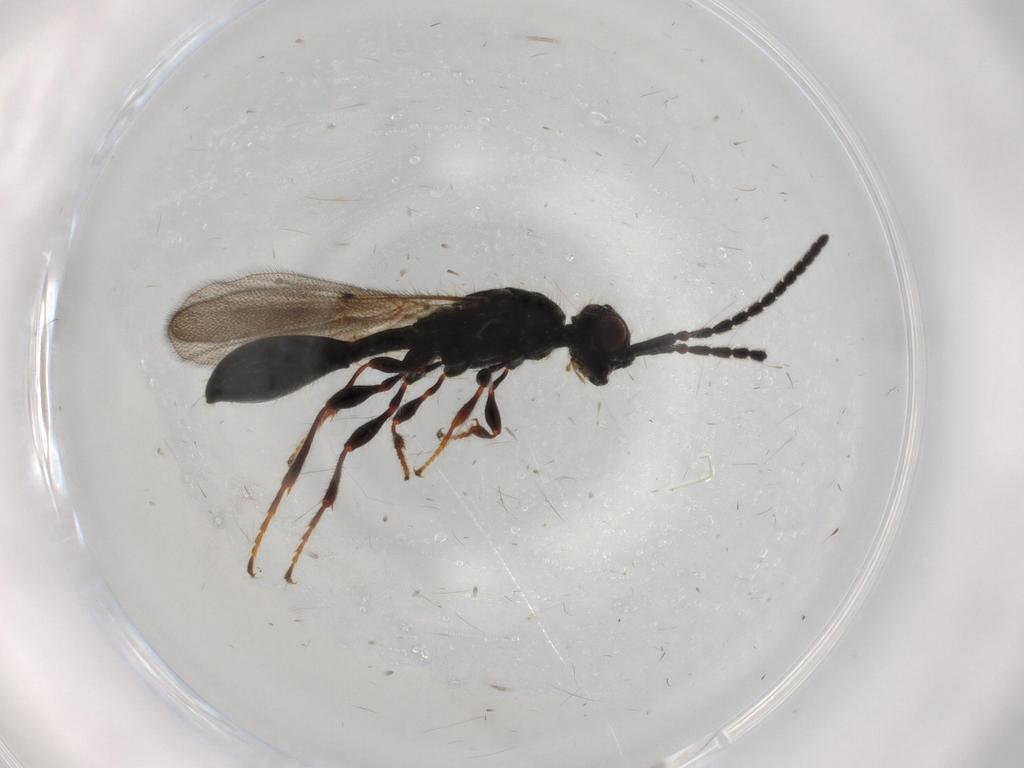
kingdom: Animalia
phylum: Arthropoda
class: Insecta
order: Hymenoptera
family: Diapriidae
